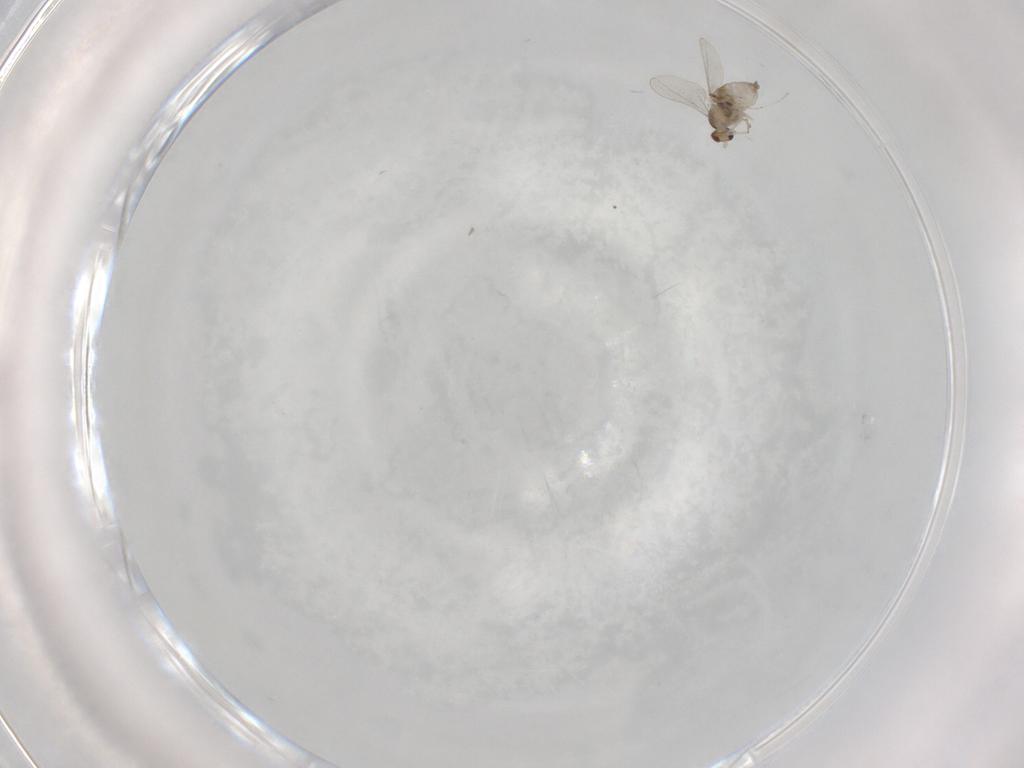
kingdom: Animalia
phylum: Arthropoda
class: Insecta
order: Diptera
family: Cecidomyiidae
